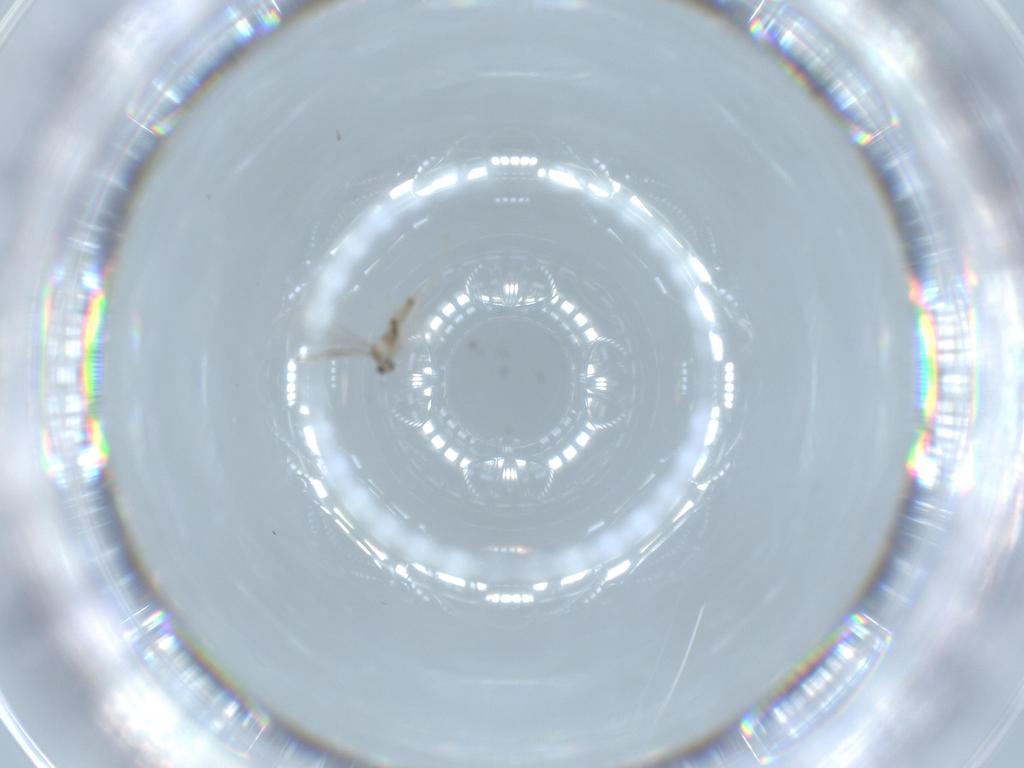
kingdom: Animalia
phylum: Arthropoda
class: Insecta
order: Diptera
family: Cecidomyiidae
